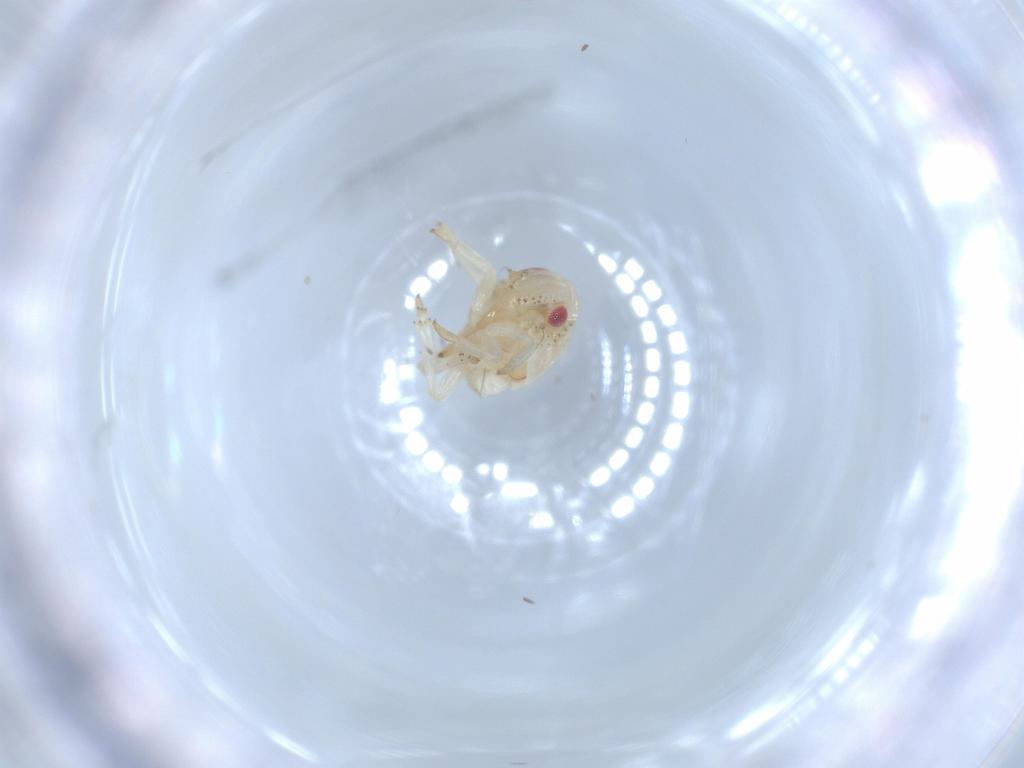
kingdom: Animalia
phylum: Arthropoda
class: Insecta
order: Hemiptera
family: Acanaloniidae
